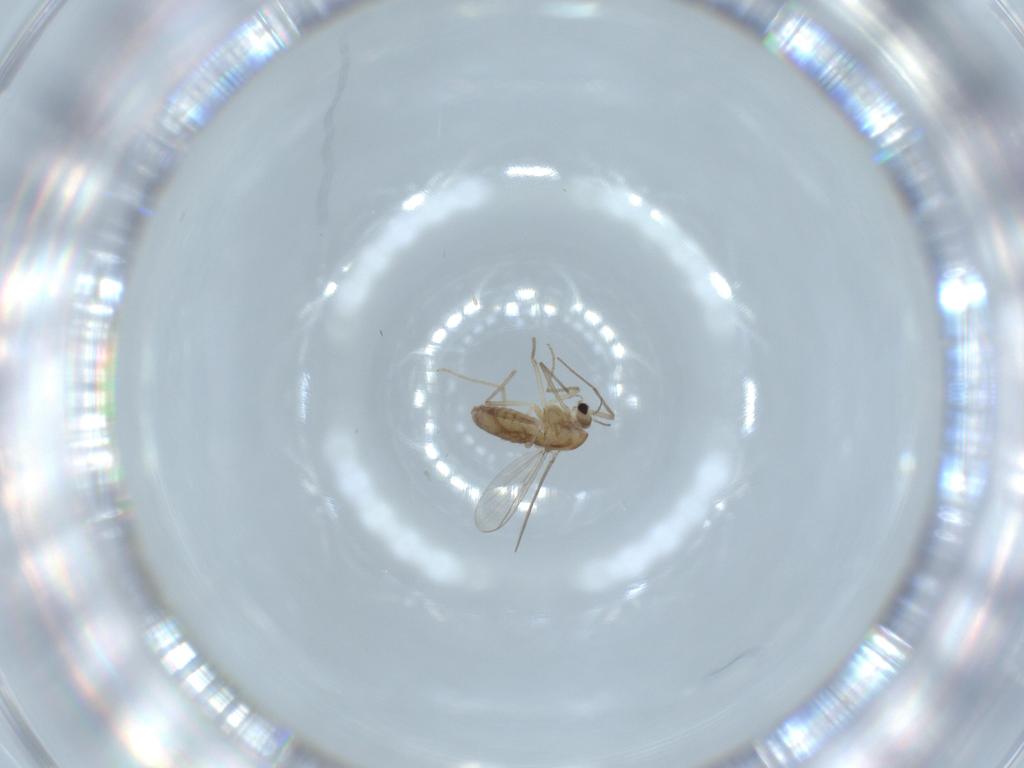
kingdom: Animalia
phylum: Arthropoda
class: Insecta
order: Diptera
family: Chironomidae
